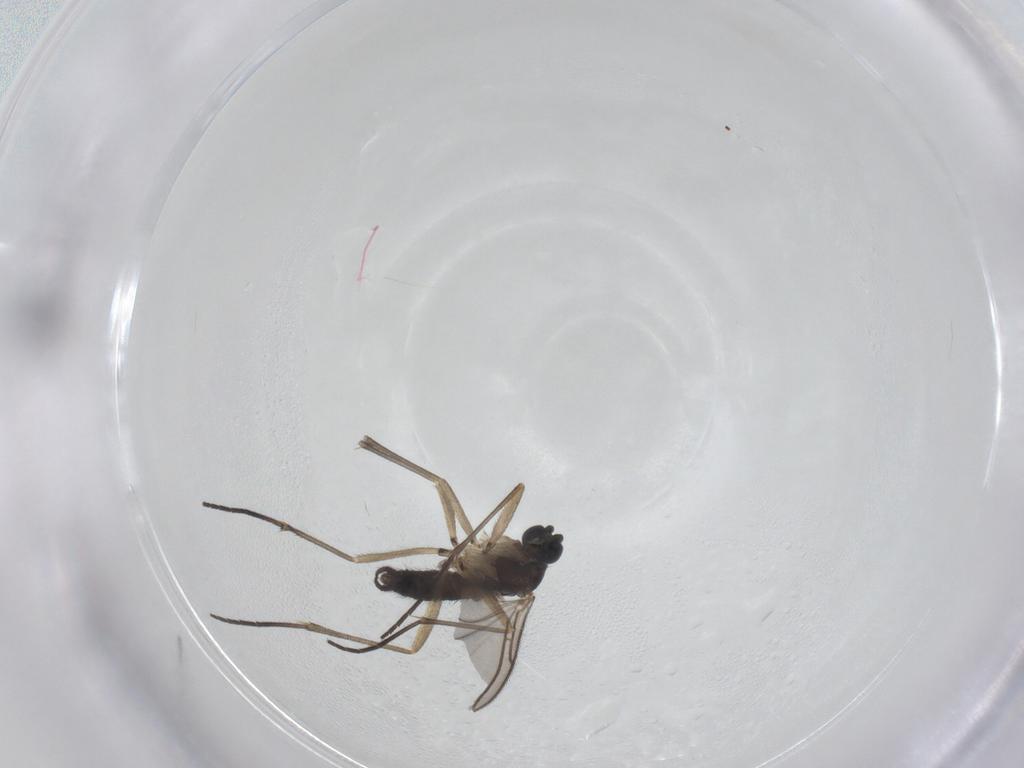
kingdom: Animalia
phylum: Arthropoda
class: Insecta
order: Diptera
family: Sciaridae
